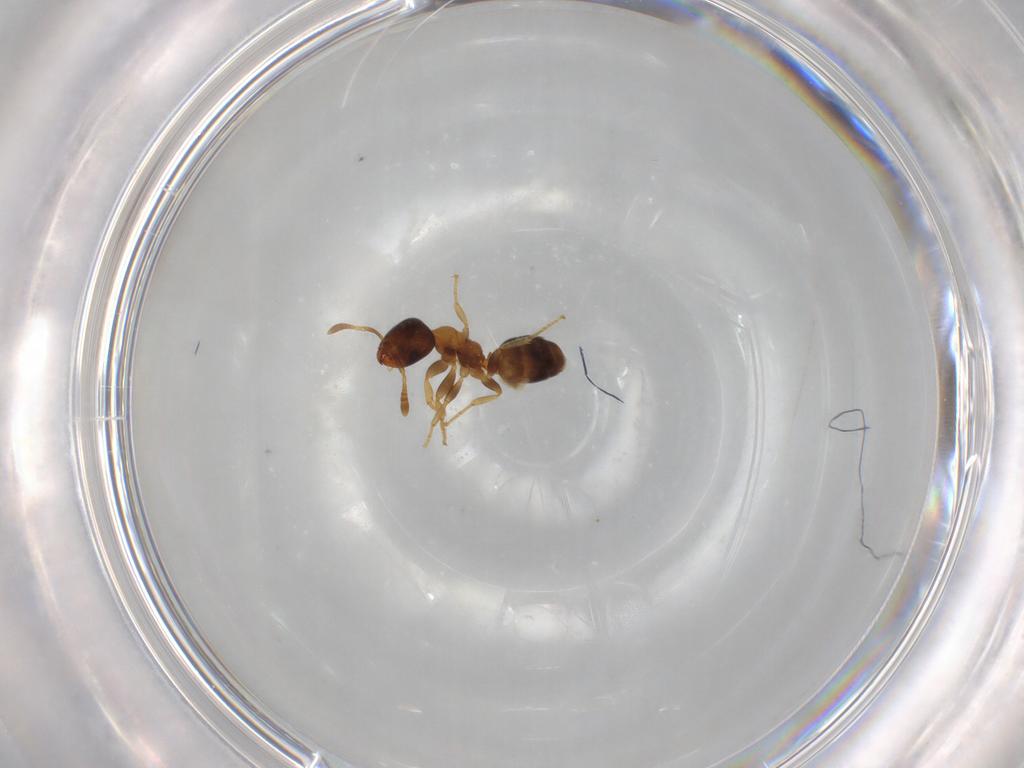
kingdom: Animalia
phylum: Arthropoda
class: Insecta
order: Hymenoptera
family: Formicidae
